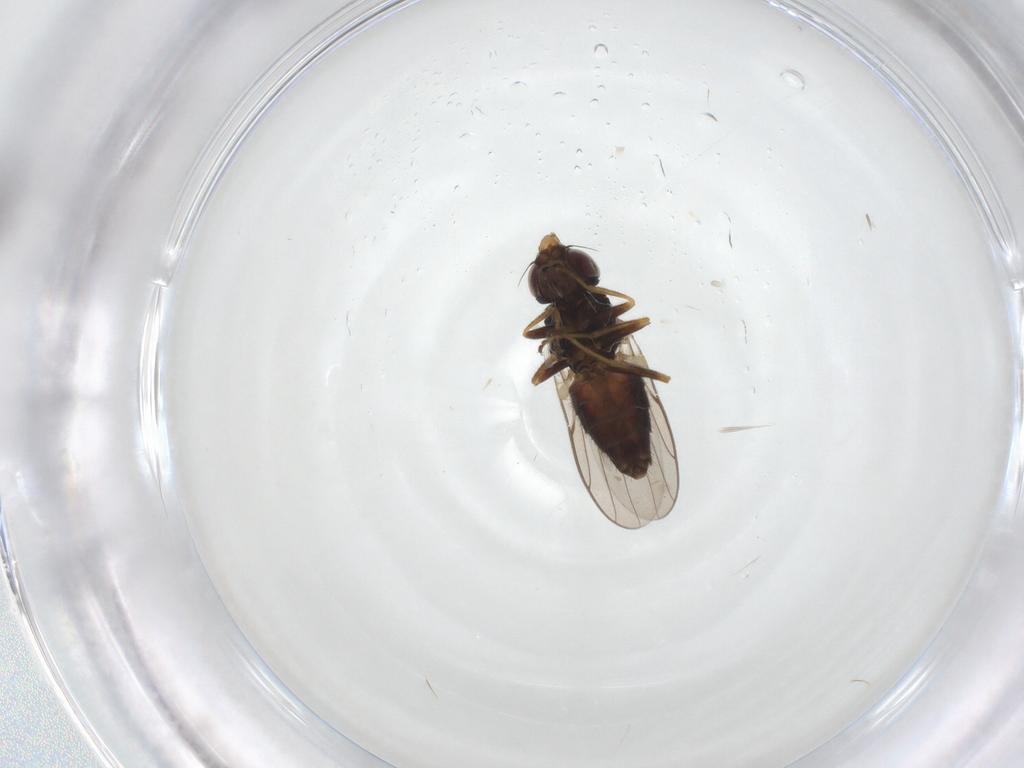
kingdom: Animalia
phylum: Arthropoda
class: Insecta
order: Diptera
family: Chloropidae
